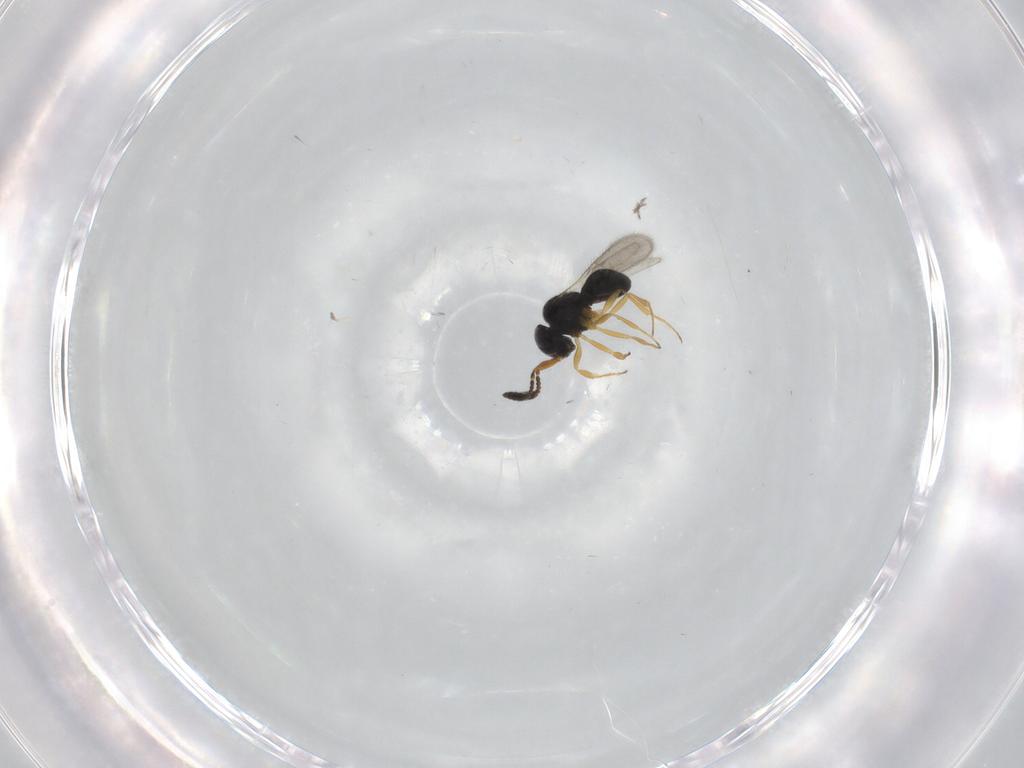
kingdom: Animalia
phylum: Arthropoda
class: Insecta
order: Hymenoptera
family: Scelionidae
